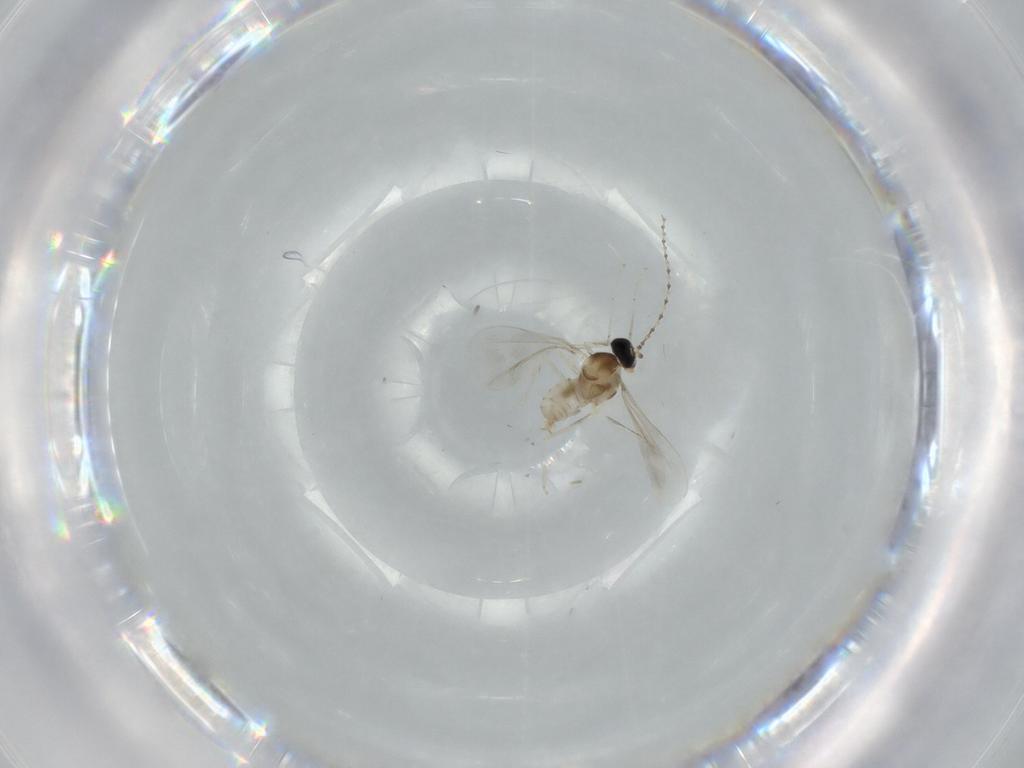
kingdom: Animalia
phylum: Arthropoda
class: Insecta
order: Diptera
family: Cecidomyiidae
